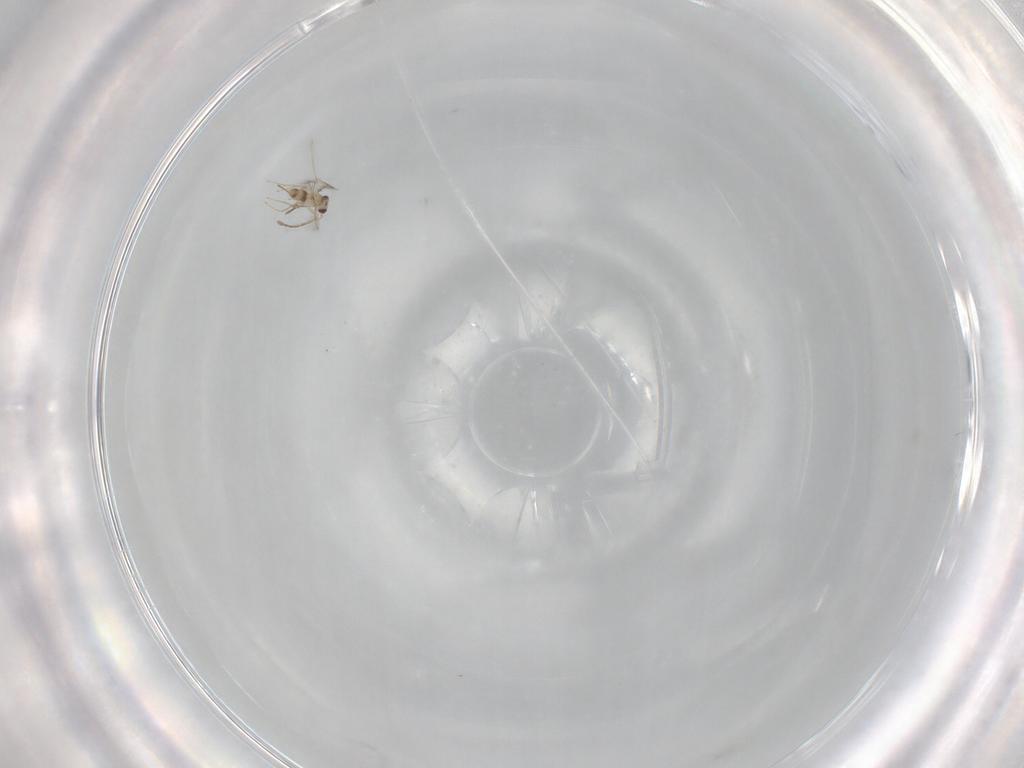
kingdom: Animalia
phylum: Arthropoda
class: Insecta
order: Hymenoptera
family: Mymaridae
